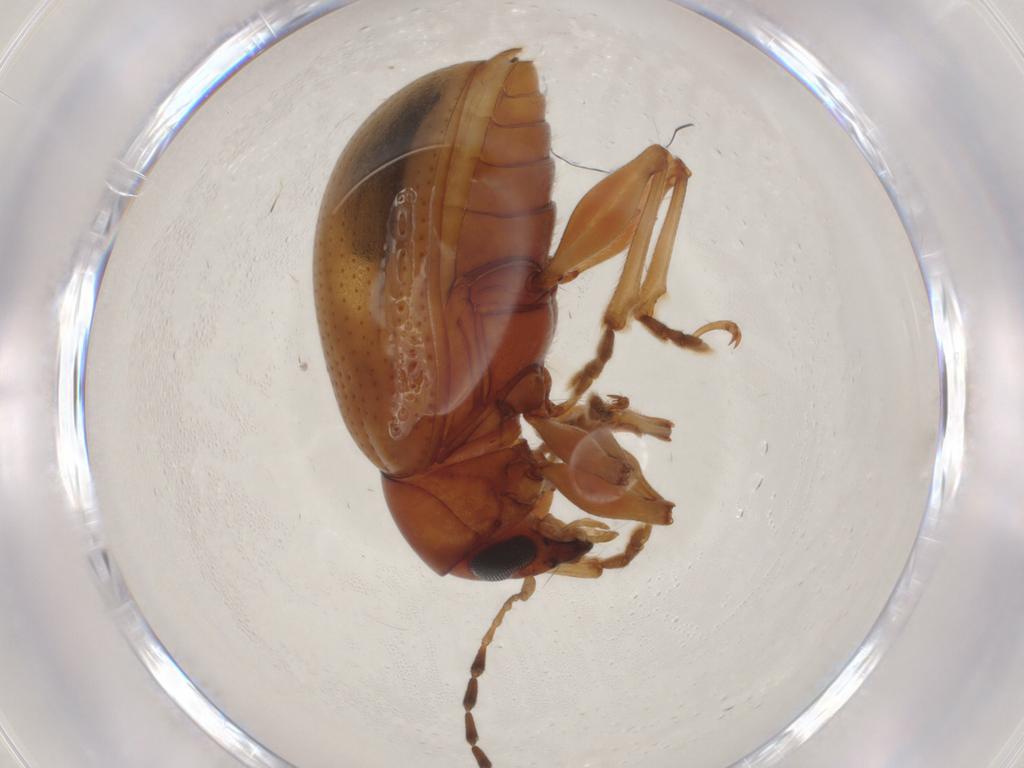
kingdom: Animalia
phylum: Arthropoda
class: Insecta
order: Coleoptera
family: Chrysomelidae
